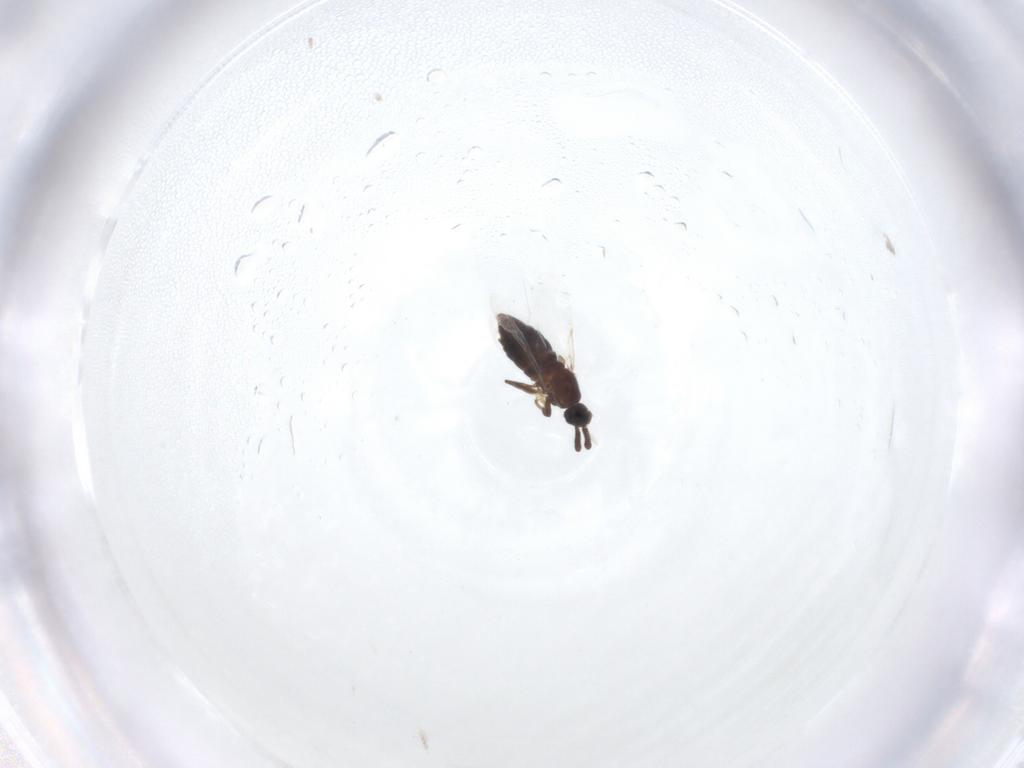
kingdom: Animalia
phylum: Arthropoda
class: Insecta
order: Diptera
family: Scatopsidae
